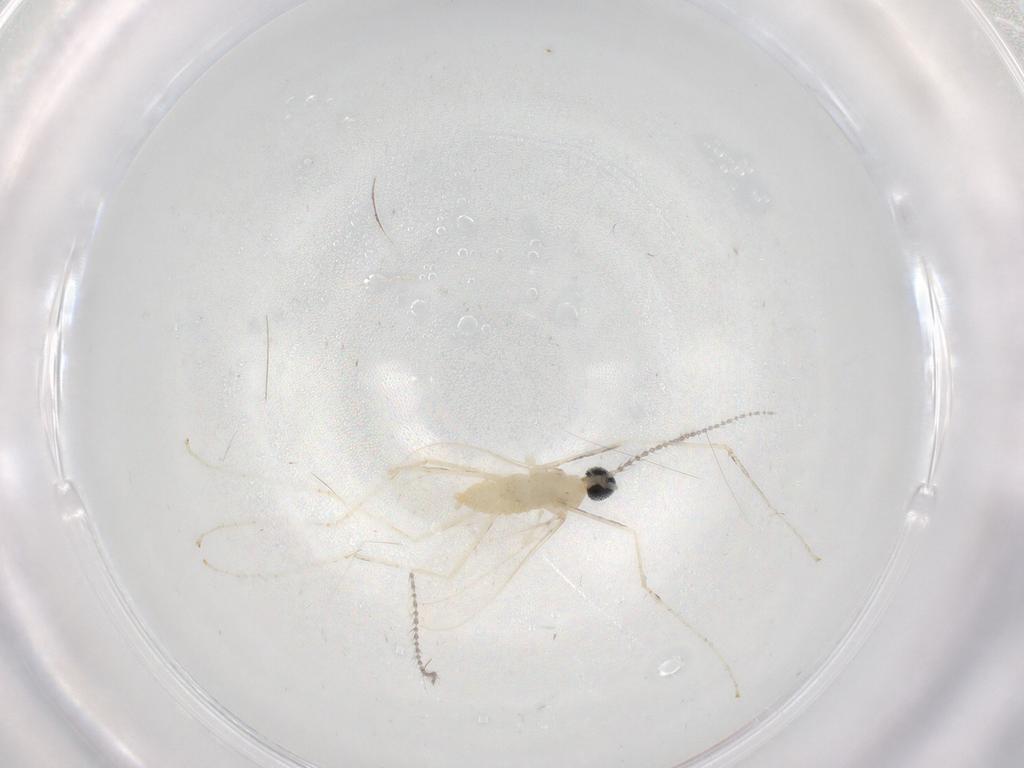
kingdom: Animalia
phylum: Arthropoda
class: Insecta
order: Diptera
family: Cecidomyiidae
